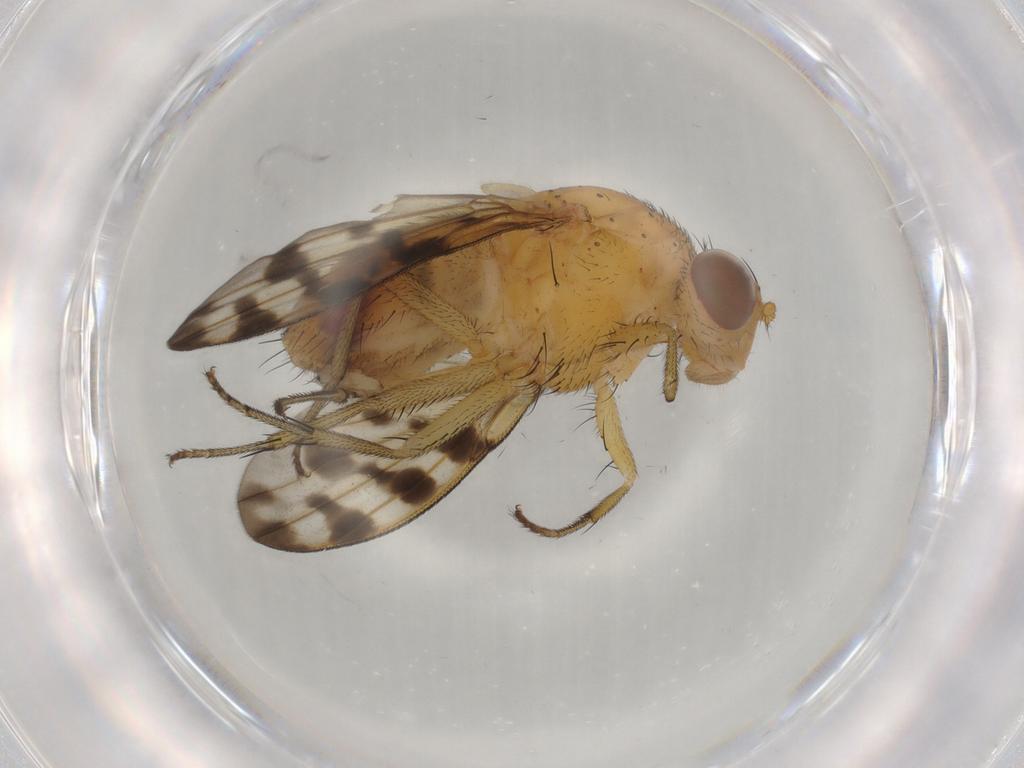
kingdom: Animalia
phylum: Arthropoda
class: Insecta
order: Diptera
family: Cecidomyiidae
